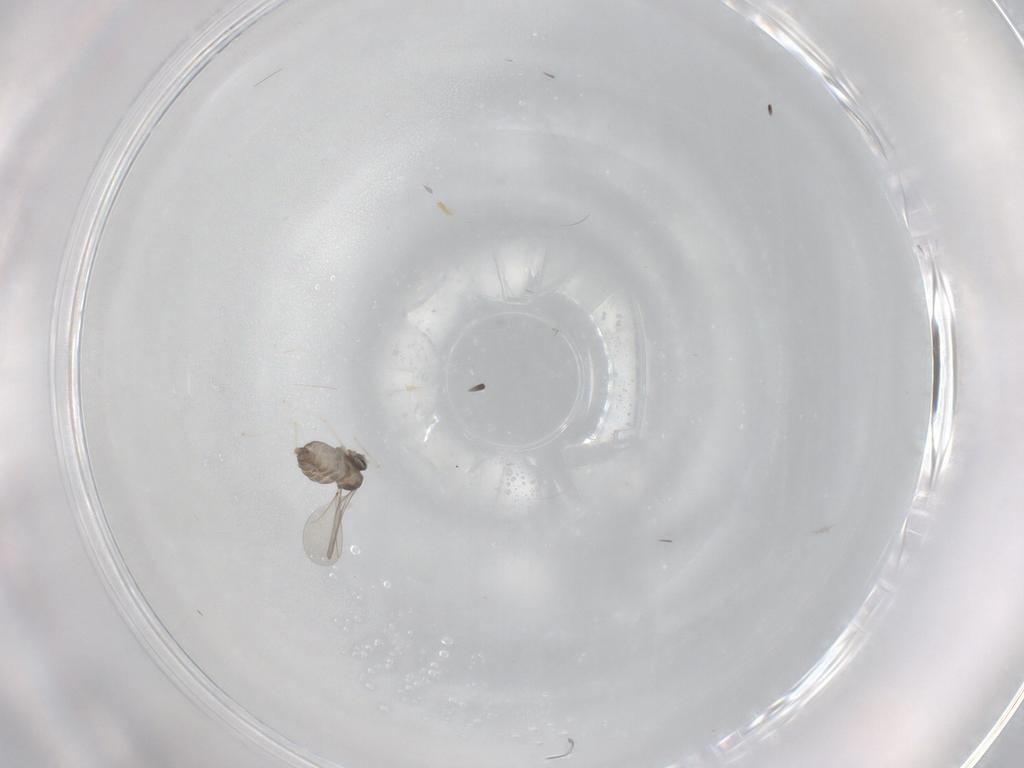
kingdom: Animalia
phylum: Arthropoda
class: Insecta
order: Diptera
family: Cecidomyiidae
